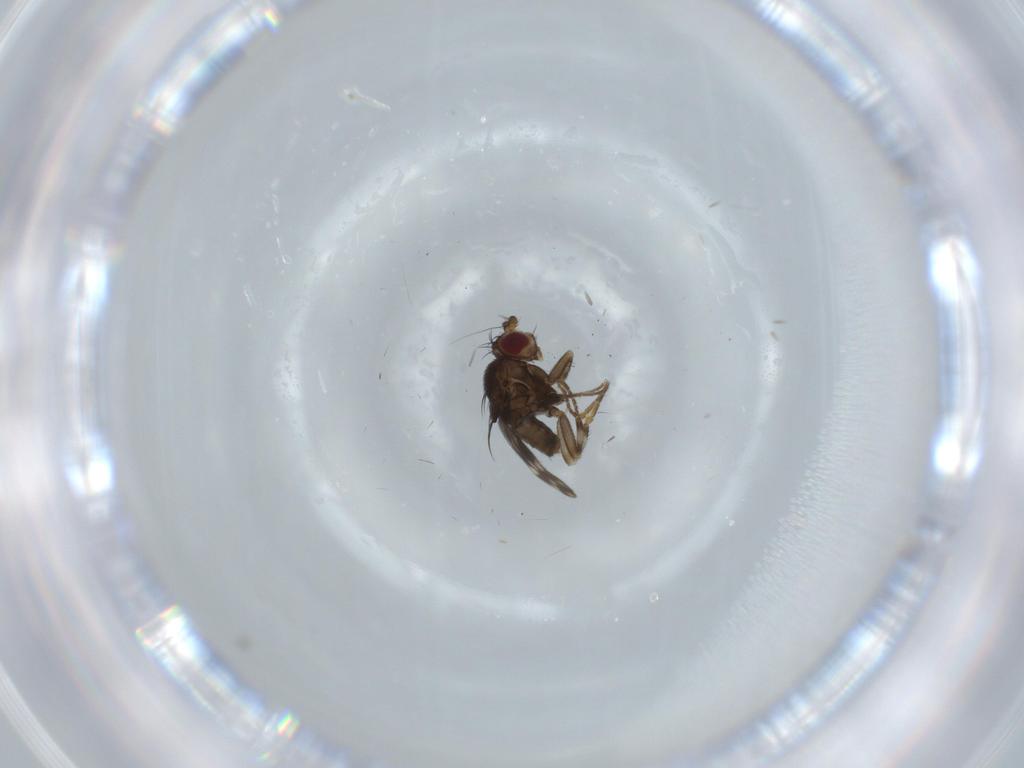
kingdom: Animalia
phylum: Arthropoda
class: Insecta
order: Diptera
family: Sphaeroceridae
